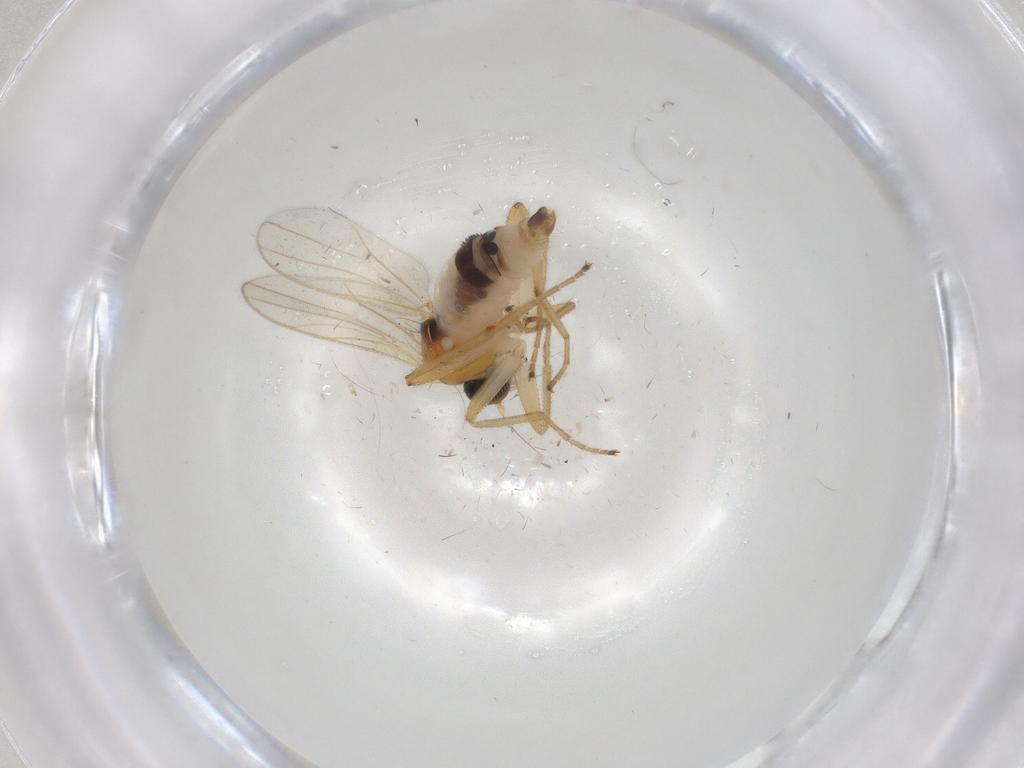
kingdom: Animalia
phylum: Arthropoda
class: Insecta
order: Diptera
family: Hybotidae
